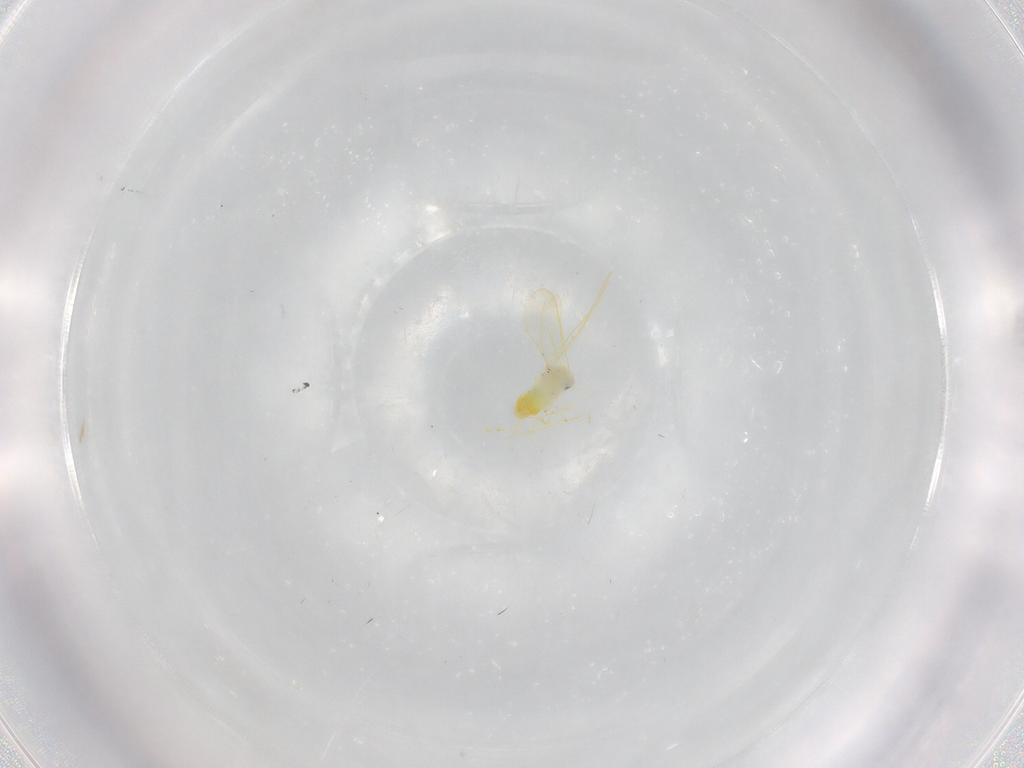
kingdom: Animalia
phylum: Arthropoda
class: Insecta
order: Hemiptera
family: Aleyrodidae
